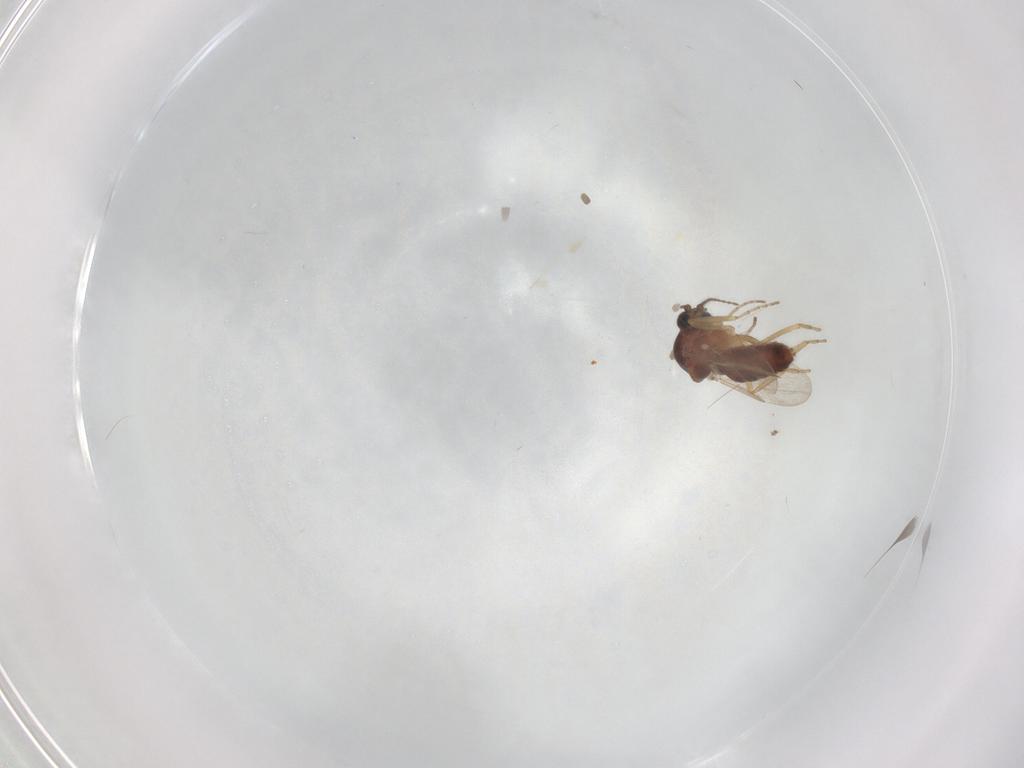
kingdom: Animalia
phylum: Arthropoda
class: Insecta
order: Diptera
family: Ceratopogonidae
